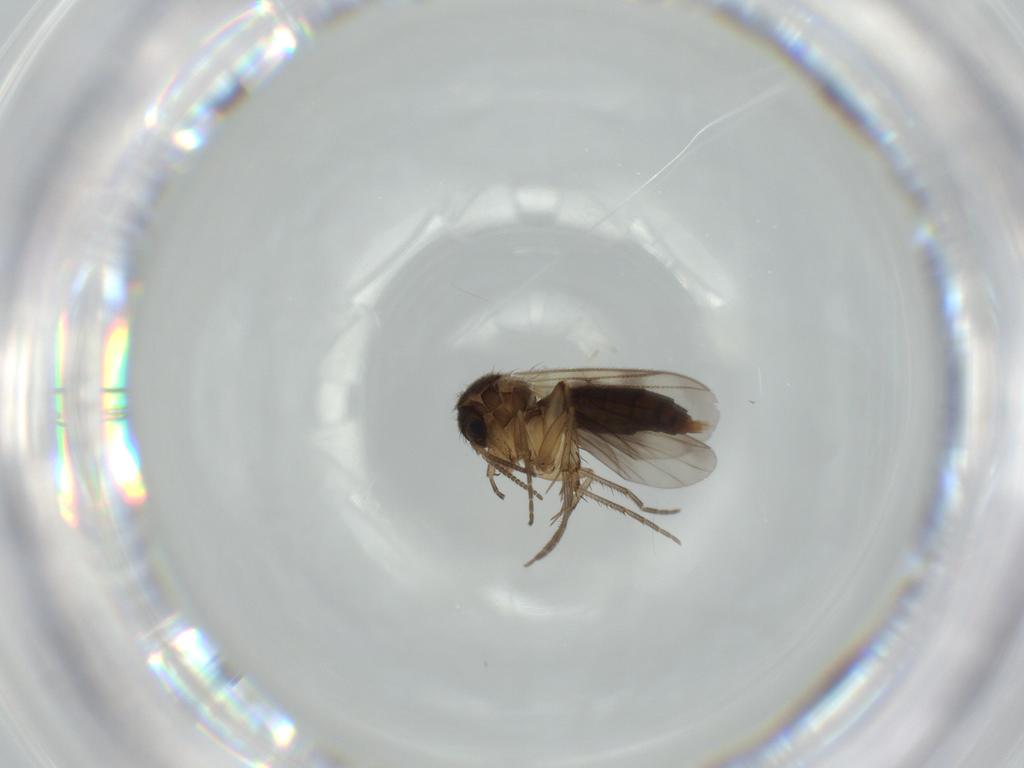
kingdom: Animalia
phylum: Arthropoda
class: Insecta
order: Diptera
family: Mycetophilidae
